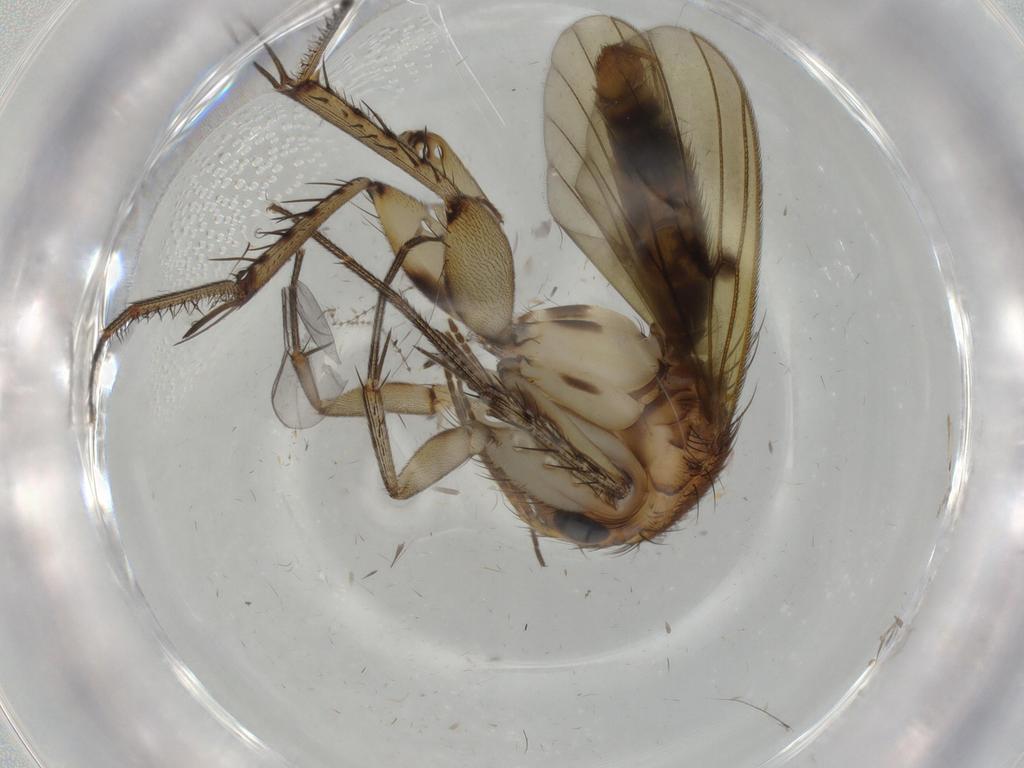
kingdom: Animalia
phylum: Arthropoda
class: Insecta
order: Diptera
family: Phoridae
